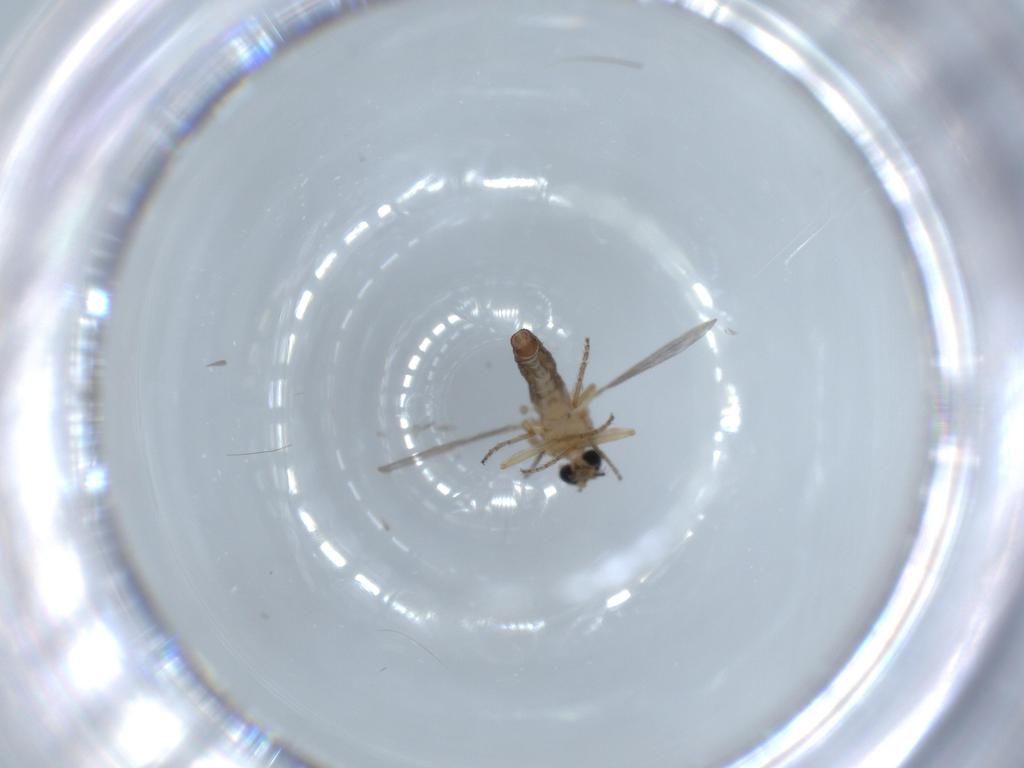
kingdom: Animalia
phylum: Arthropoda
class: Insecta
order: Diptera
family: Ceratopogonidae
